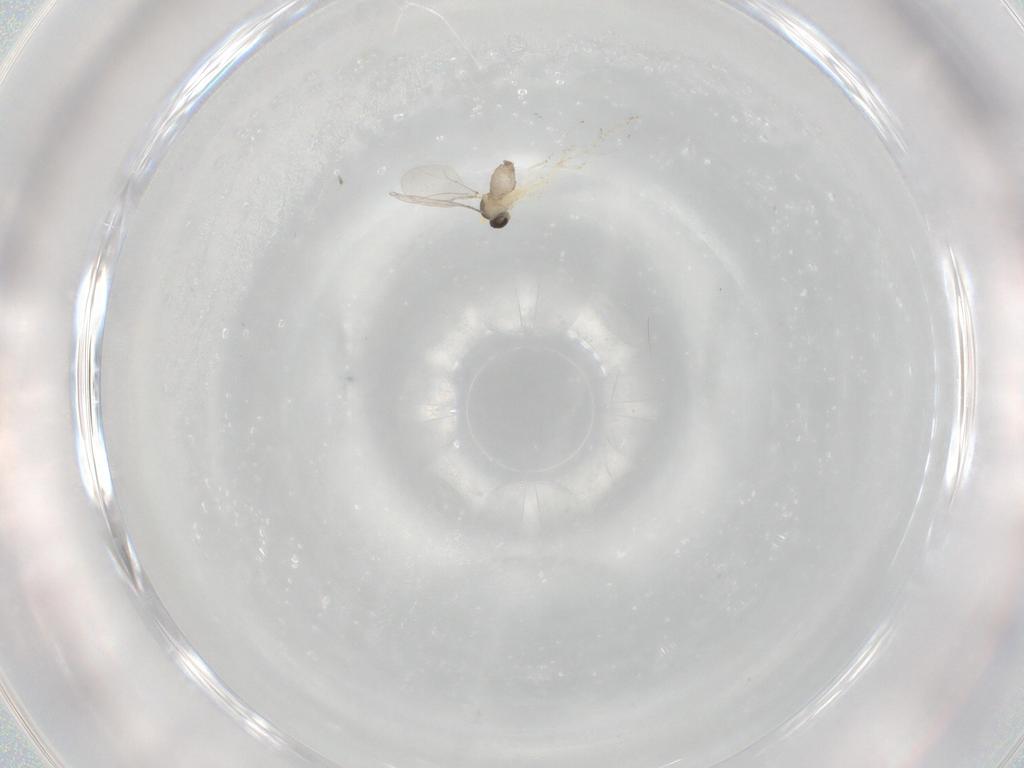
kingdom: Animalia
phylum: Arthropoda
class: Insecta
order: Diptera
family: Cecidomyiidae
